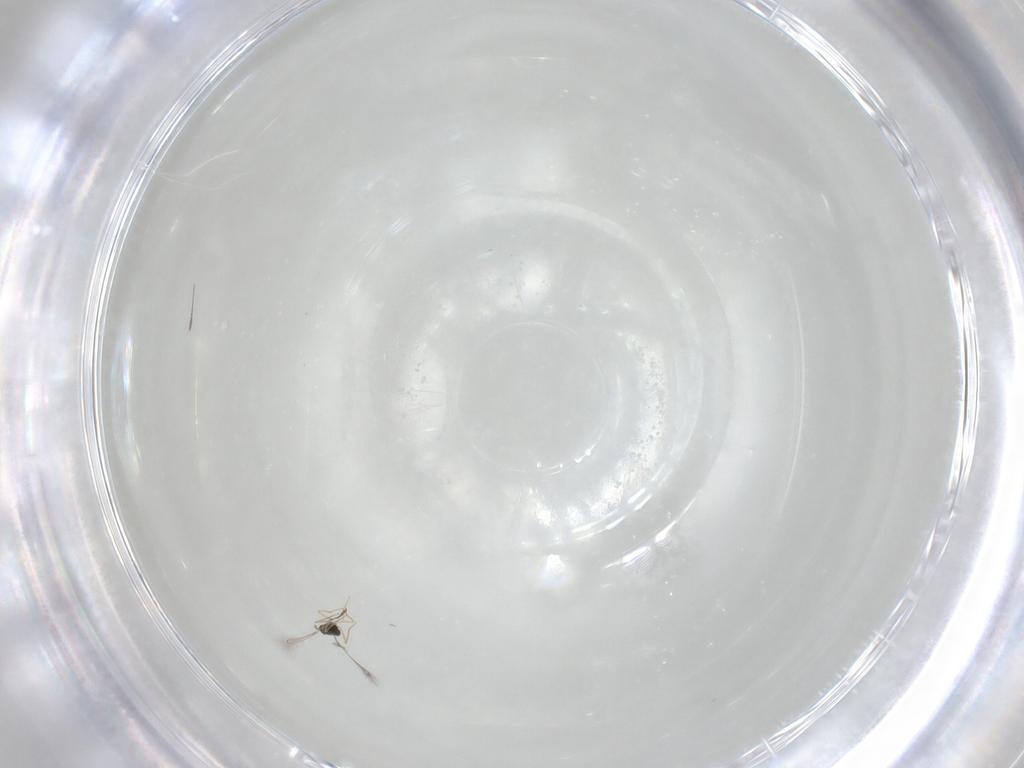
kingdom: Animalia
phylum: Arthropoda
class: Insecta
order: Hymenoptera
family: Mymaridae
